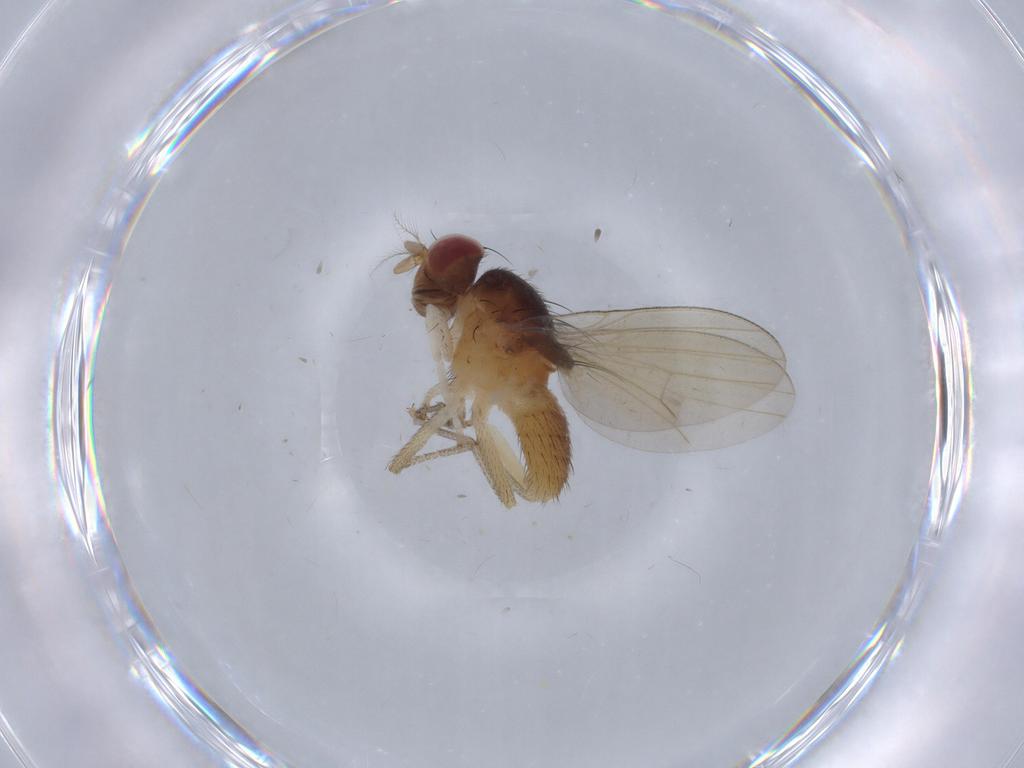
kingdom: Animalia
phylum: Arthropoda
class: Insecta
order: Diptera
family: Lauxaniidae
